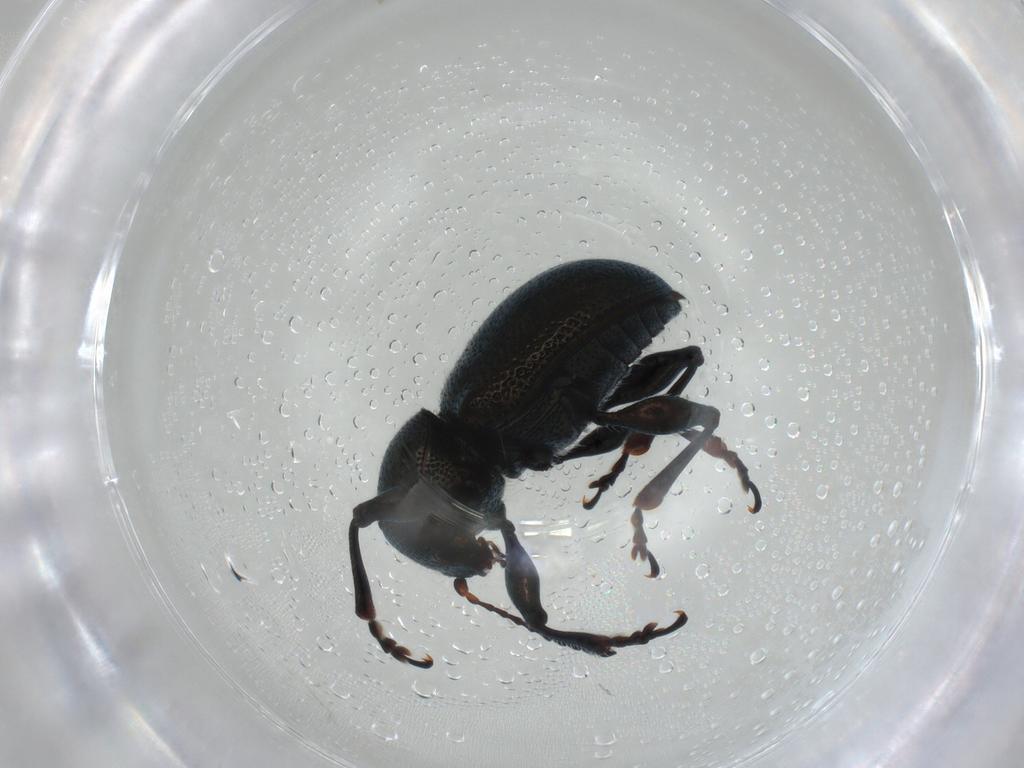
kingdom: Animalia
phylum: Arthropoda
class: Insecta
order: Coleoptera
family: Chrysomelidae
